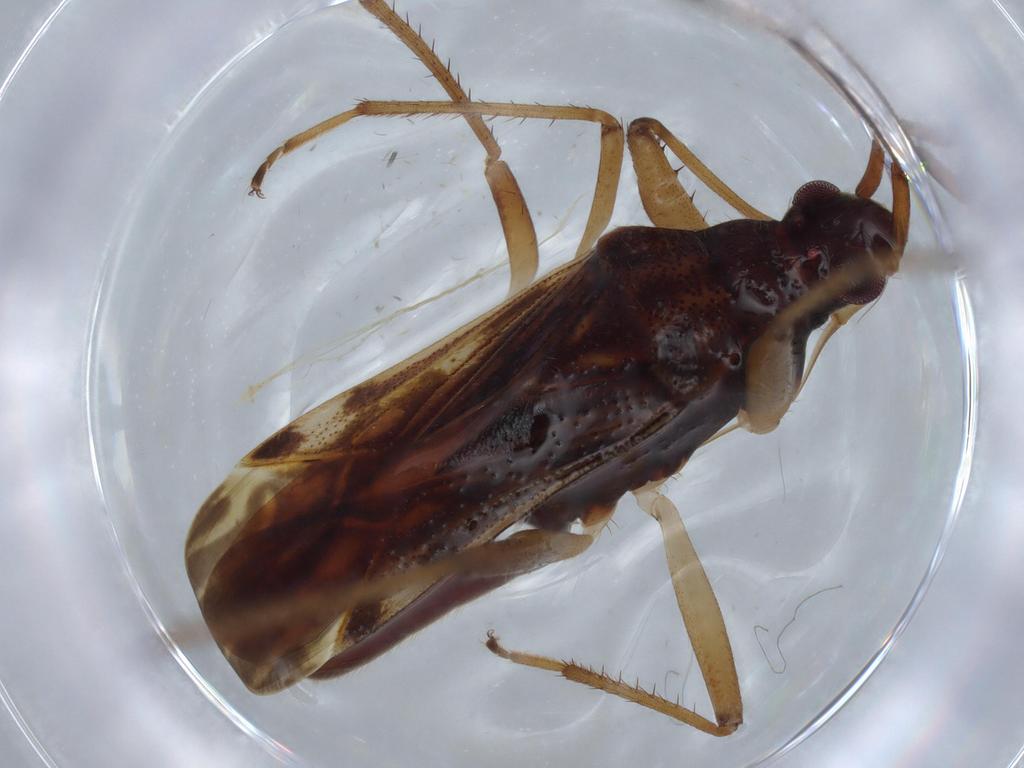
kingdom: Animalia
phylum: Arthropoda
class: Insecta
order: Hemiptera
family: Rhyparochromidae
